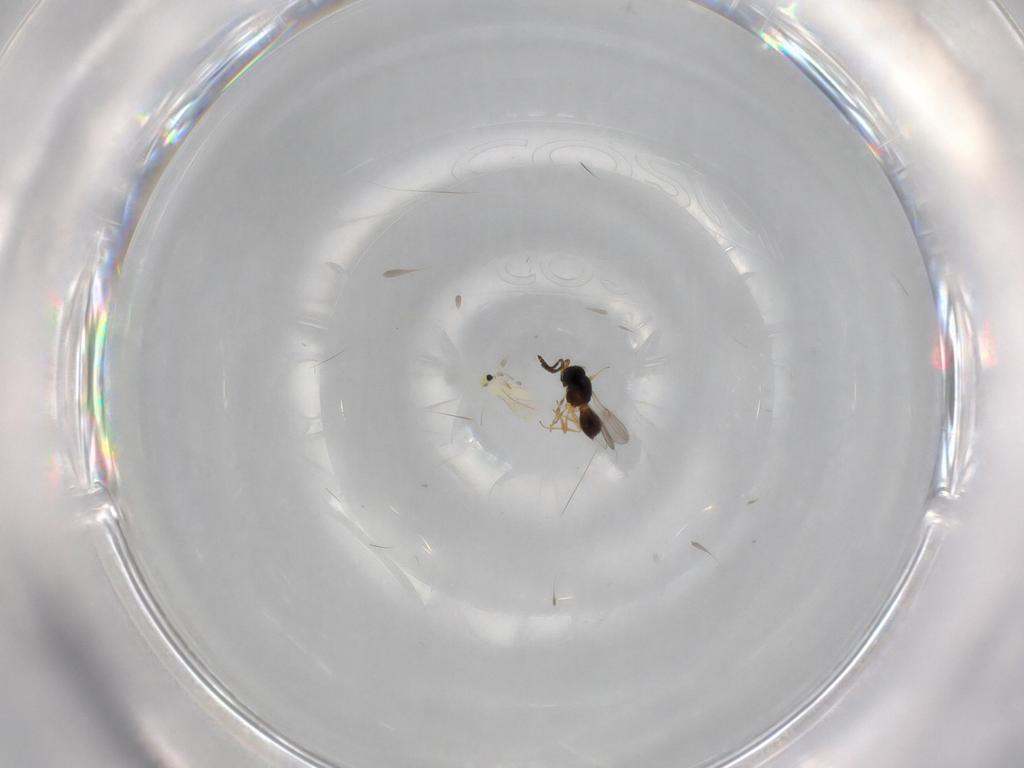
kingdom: Animalia
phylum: Arthropoda
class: Insecta
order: Hymenoptera
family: Scelionidae
